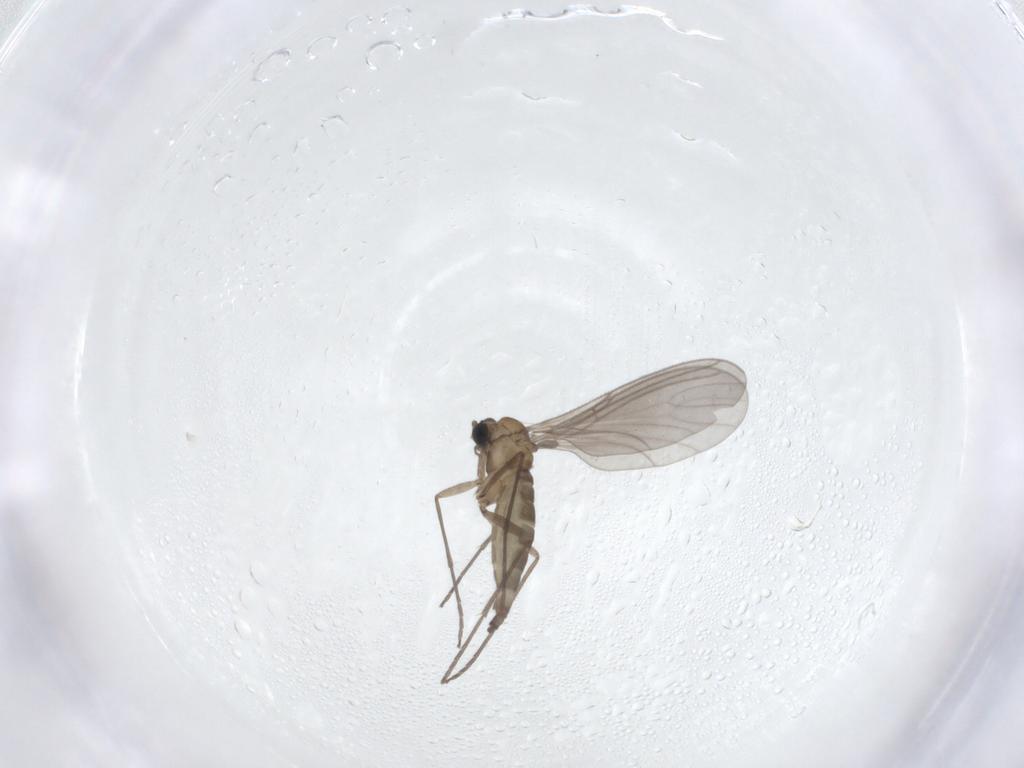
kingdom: Animalia
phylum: Arthropoda
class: Insecta
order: Diptera
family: Sciaridae
